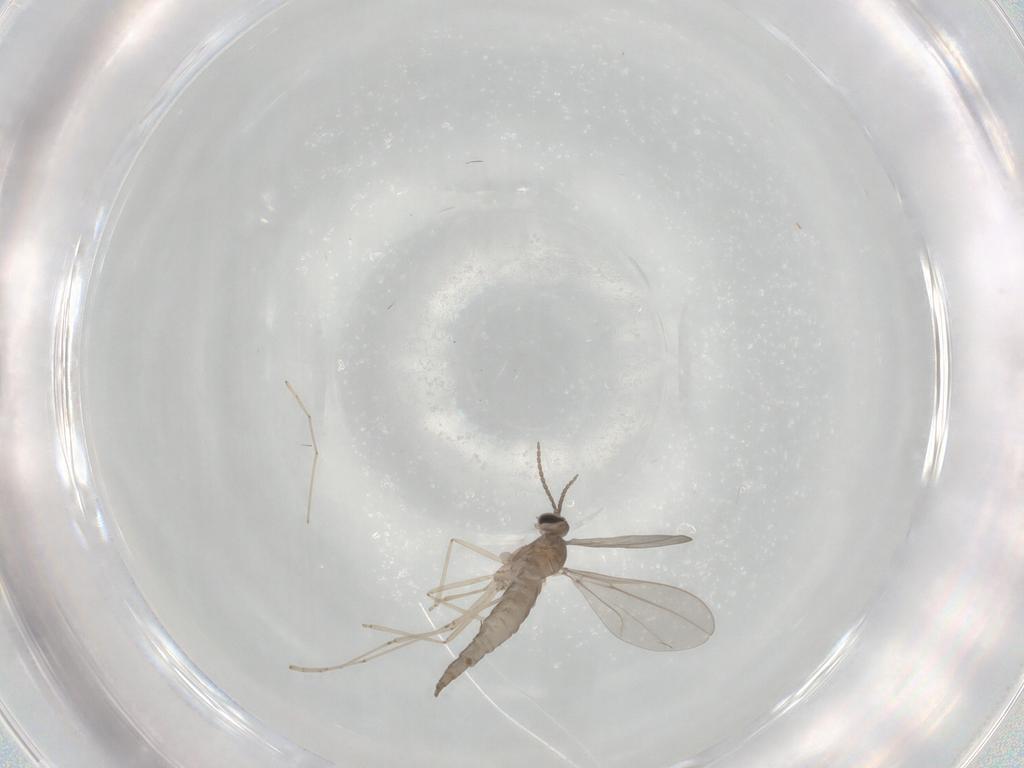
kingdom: Animalia
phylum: Arthropoda
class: Insecta
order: Diptera
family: Cecidomyiidae
